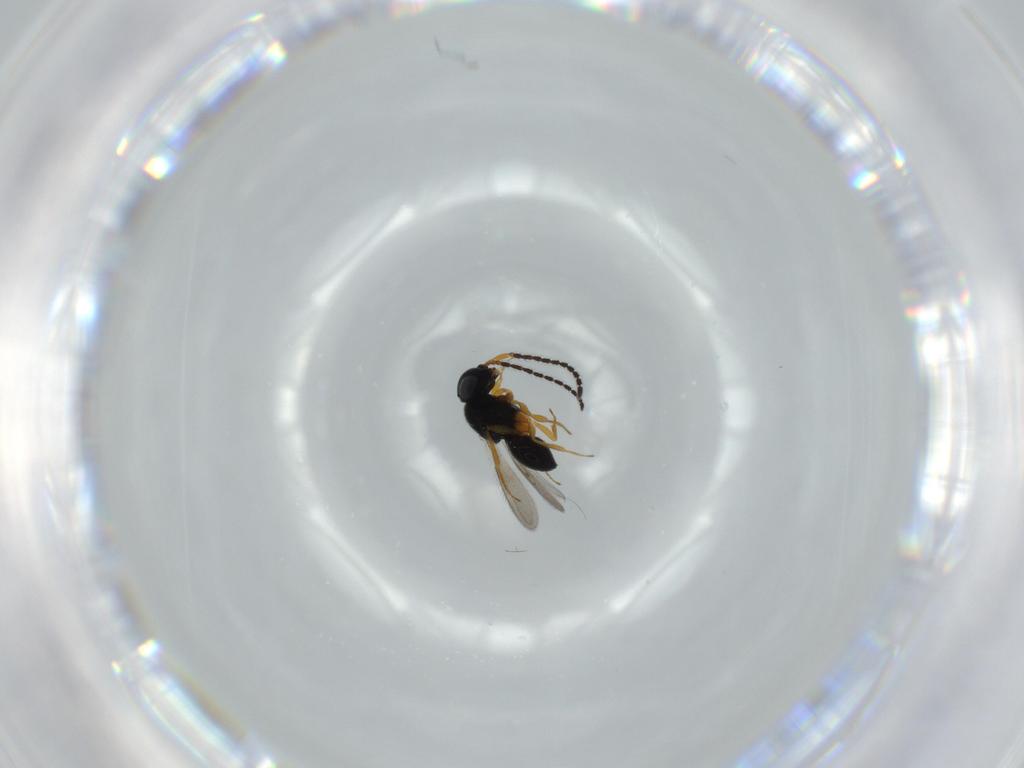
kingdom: Animalia
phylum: Arthropoda
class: Insecta
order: Hymenoptera
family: Scelionidae
